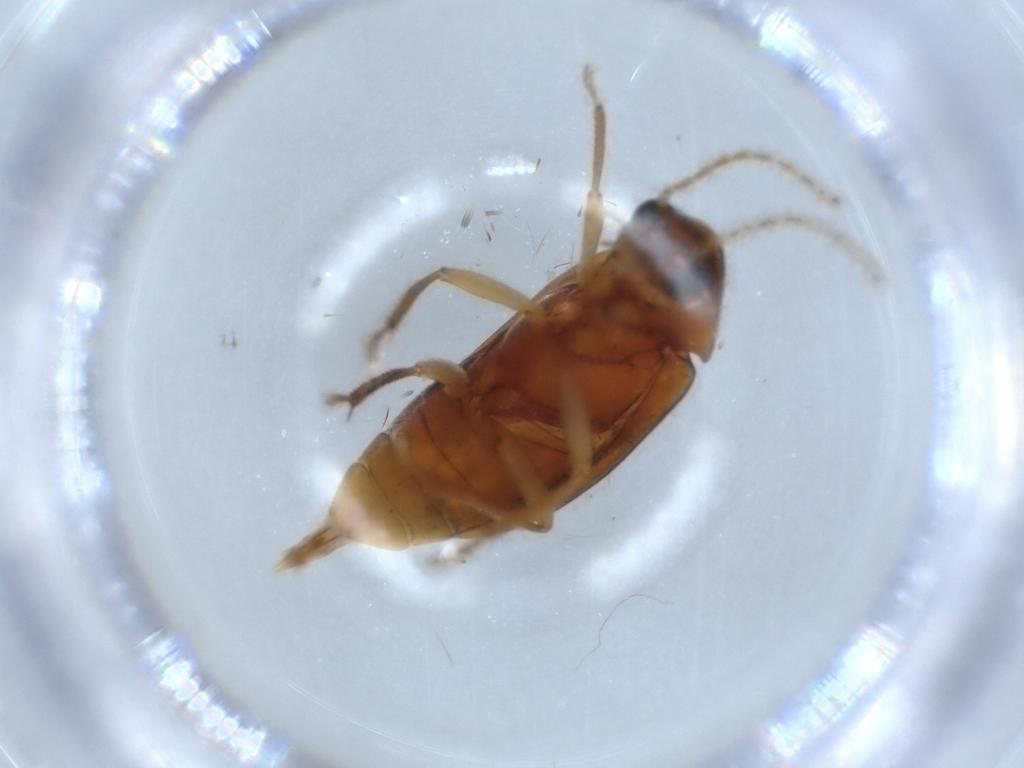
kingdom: Animalia
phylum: Arthropoda
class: Insecta
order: Coleoptera
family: Ptilodactylidae
